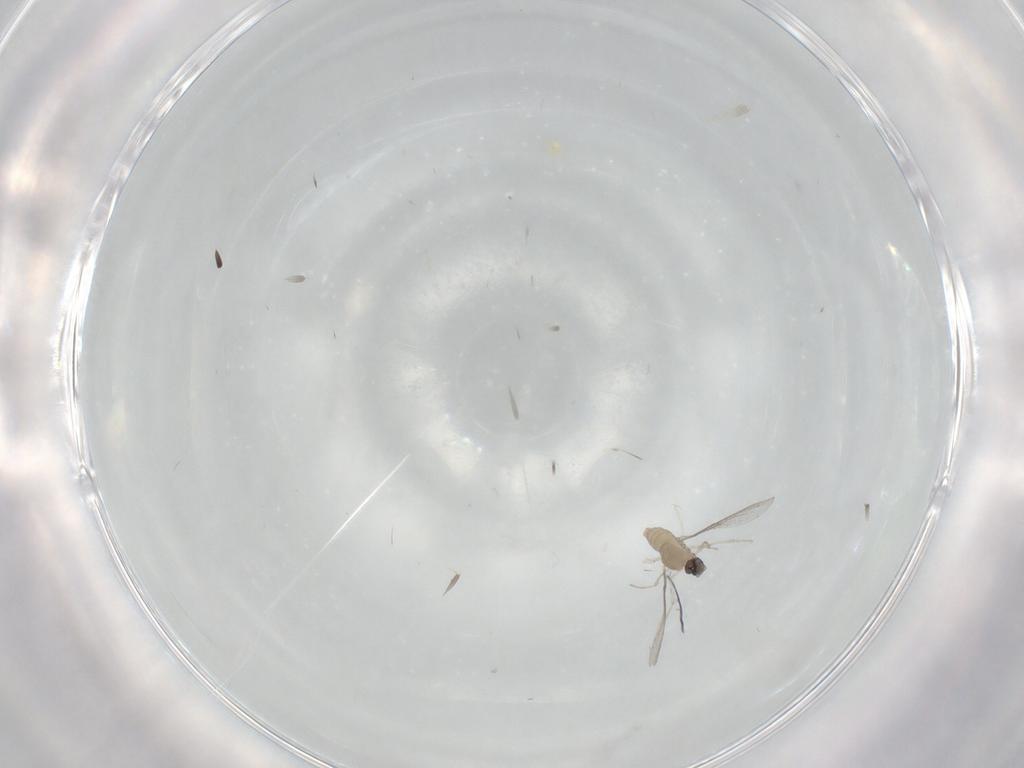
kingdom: Animalia
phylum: Arthropoda
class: Insecta
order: Diptera
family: Cecidomyiidae
